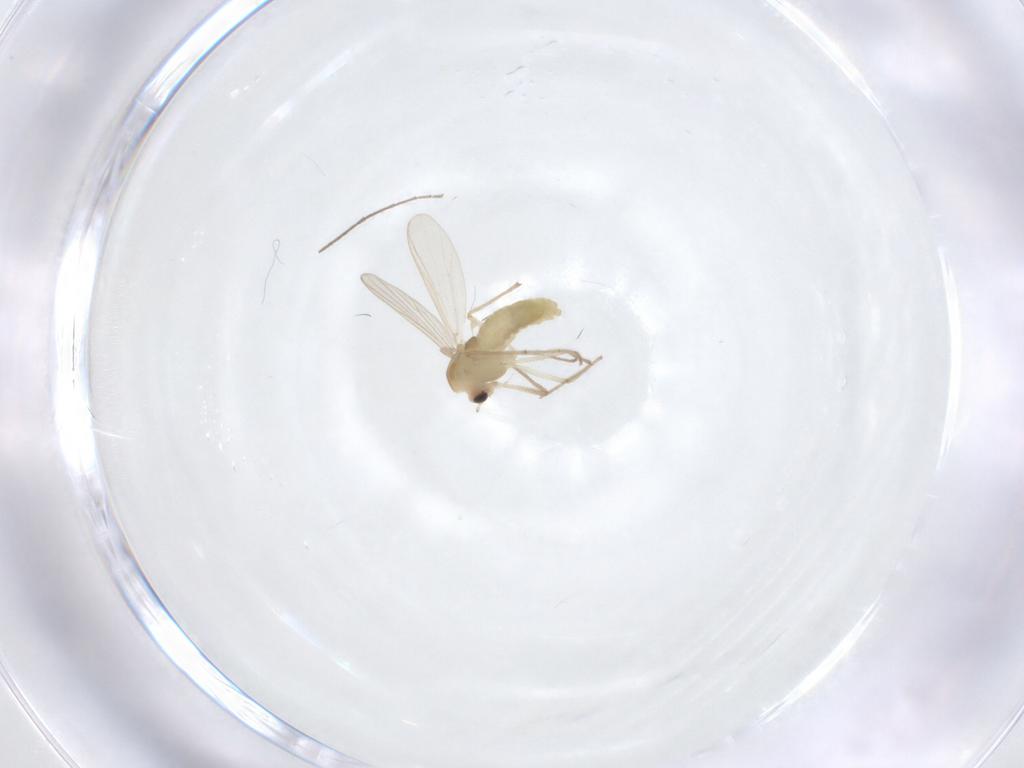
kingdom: Animalia
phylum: Arthropoda
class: Insecta
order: Diptera
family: Chironomidae
